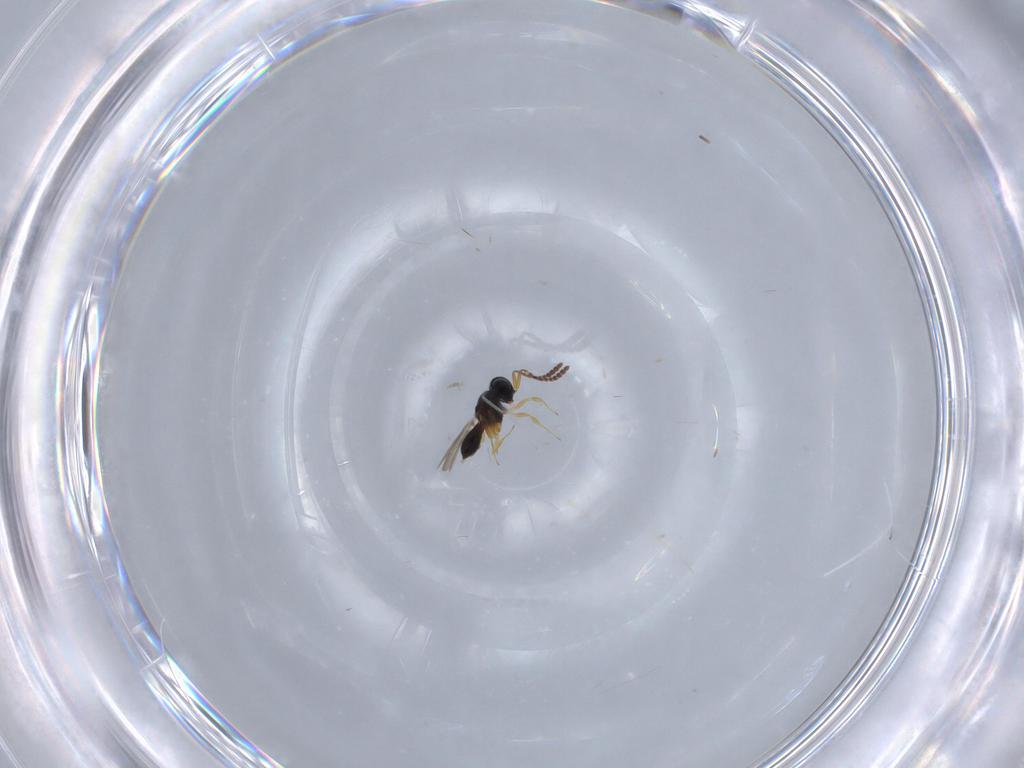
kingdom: Animalia
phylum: Arthropoda
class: Insecta
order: Hymenoptera
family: Scelionidae
